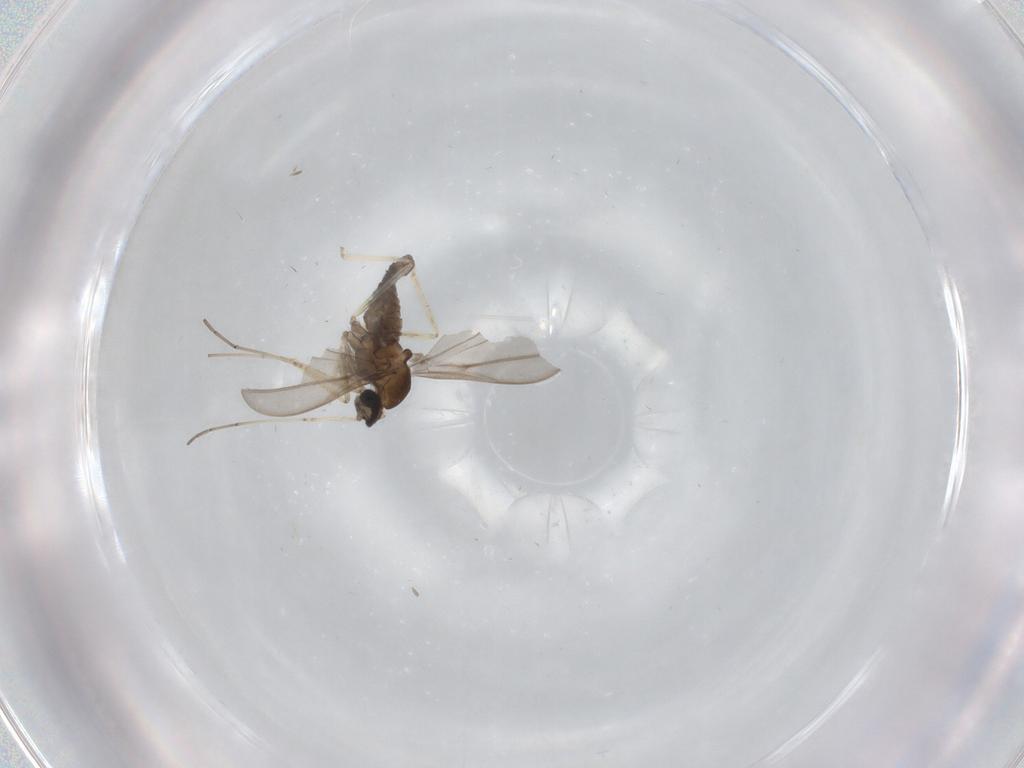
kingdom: Animalia
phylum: Arthropoda
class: Insecta
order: Diptera
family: Cecidomyiidae
